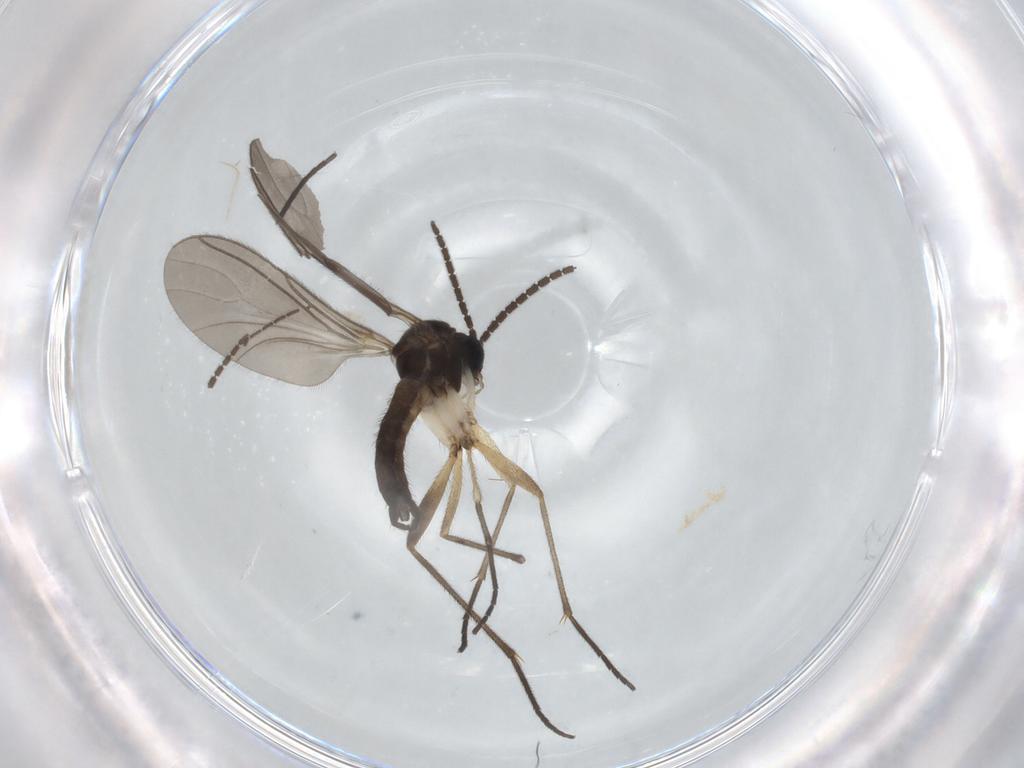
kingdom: Animalia
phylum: Arthropoda
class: Insecta
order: Diptera
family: Sciaridae
